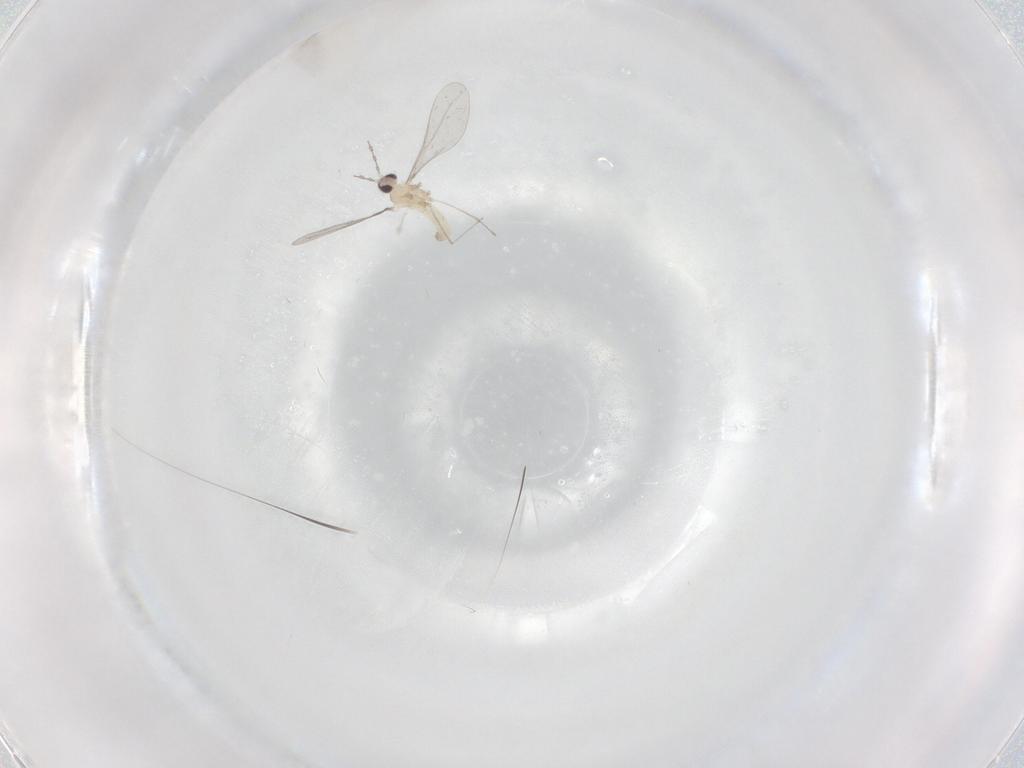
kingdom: Animalia
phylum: Arthropoda
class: Insecta
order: Diptera
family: Cecidomyiidae
